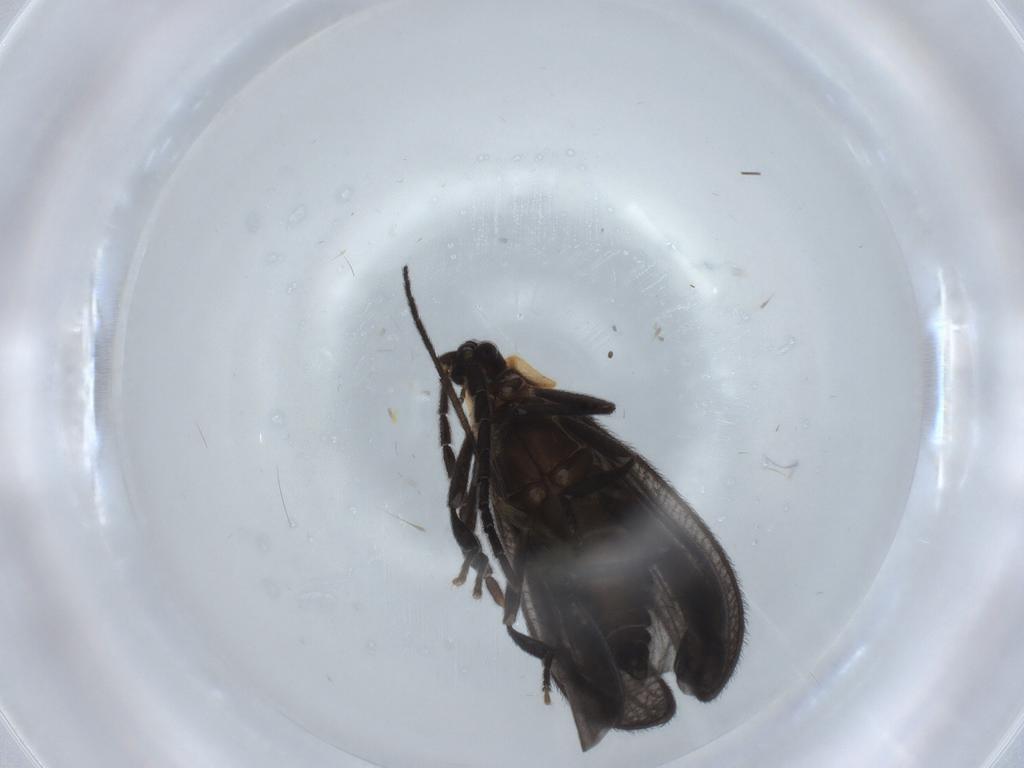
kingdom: Animalia
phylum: Arthropoda
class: Insecta
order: Coleoptera
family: Lycidae
